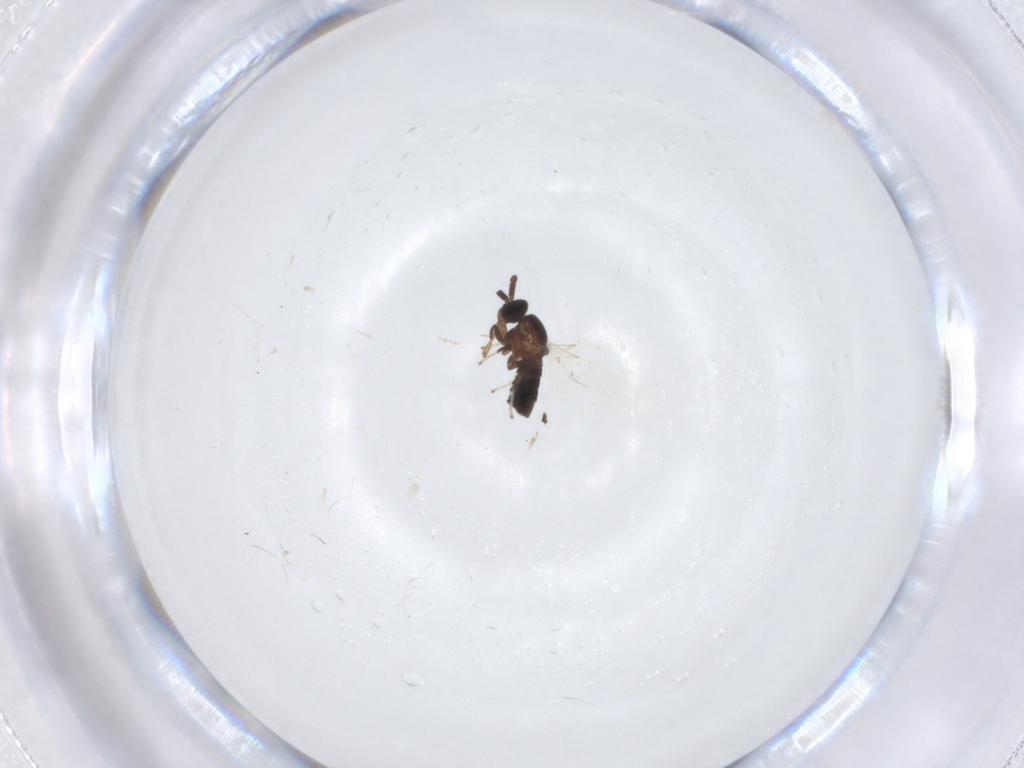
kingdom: Animalia
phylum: Arthropoda
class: Insecta
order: Diptera
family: Cecidomyiidae
